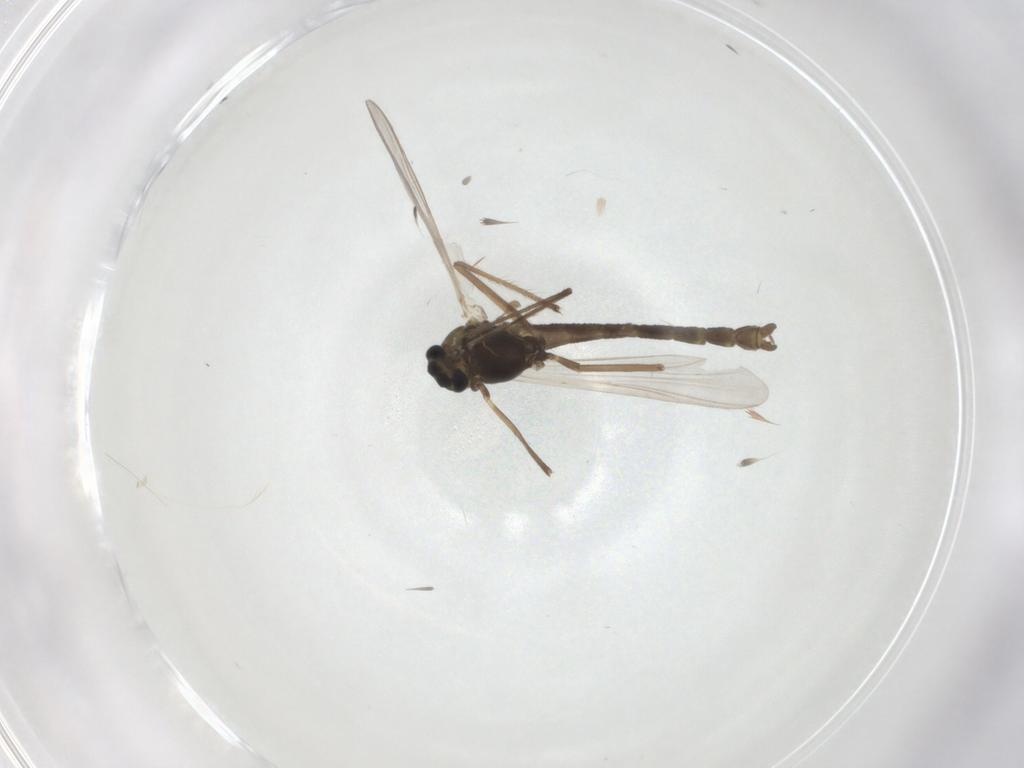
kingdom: Animalia
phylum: Arthropoda
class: Insecta
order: Diptera
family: Chironomidae
